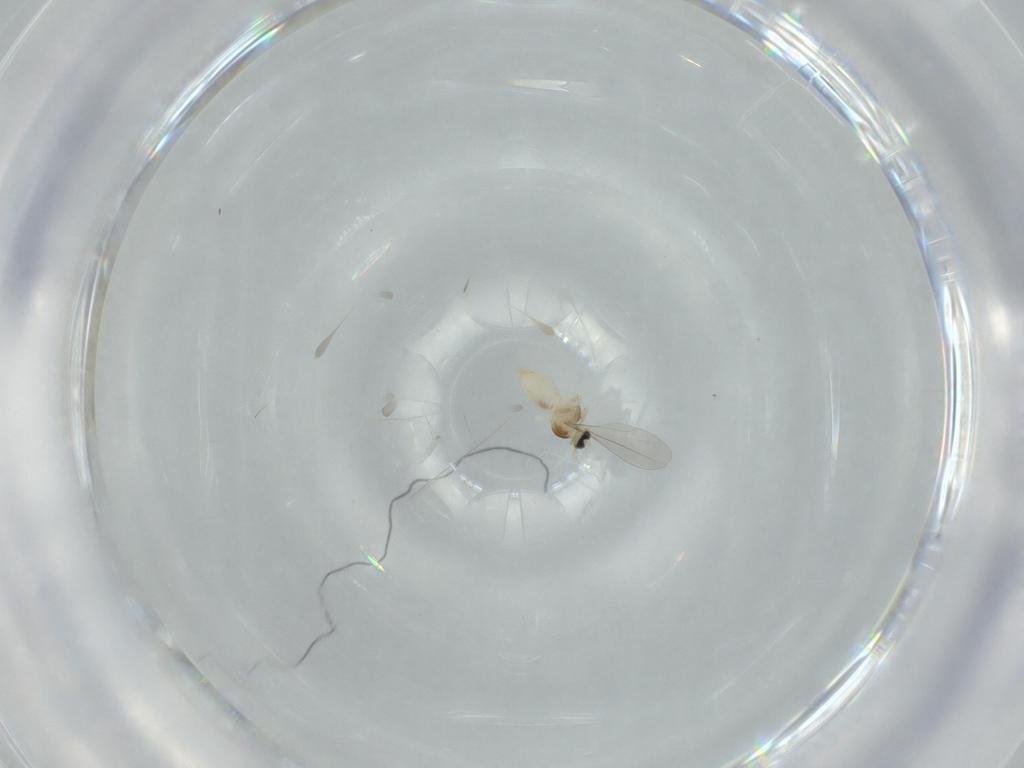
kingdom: Animalia
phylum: Arthropoda
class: Insecta
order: Diptera
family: Cecidomyiidae
